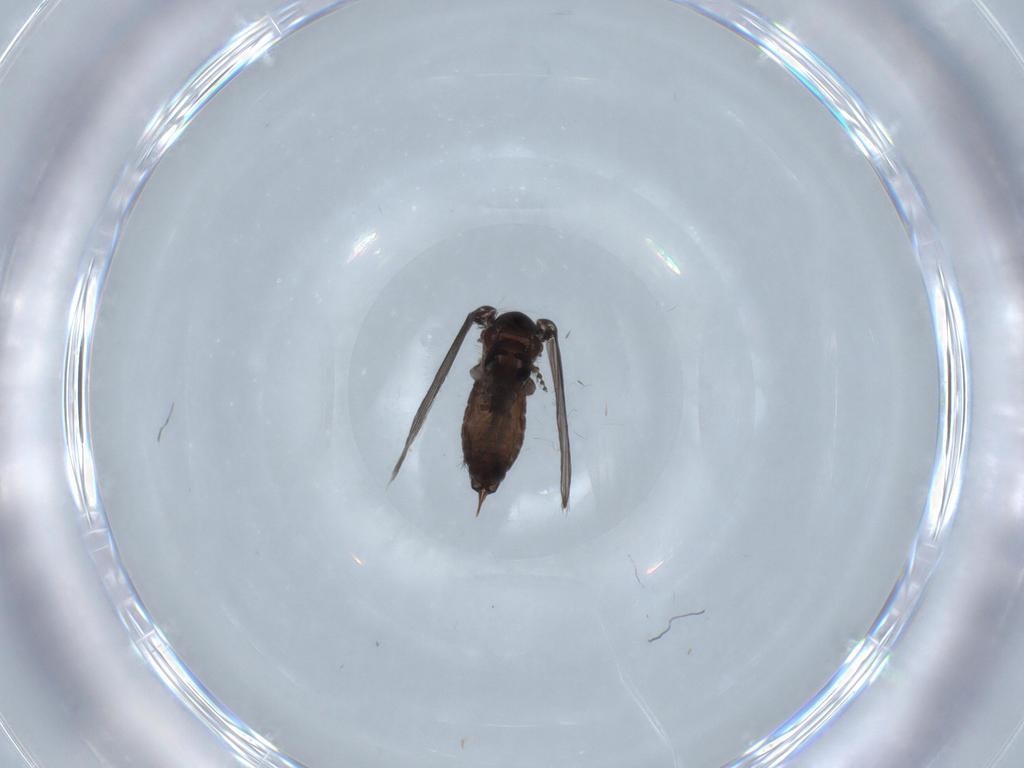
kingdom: Animalia
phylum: Arthropoda
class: Insecta
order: Diptera
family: Psychodidae
